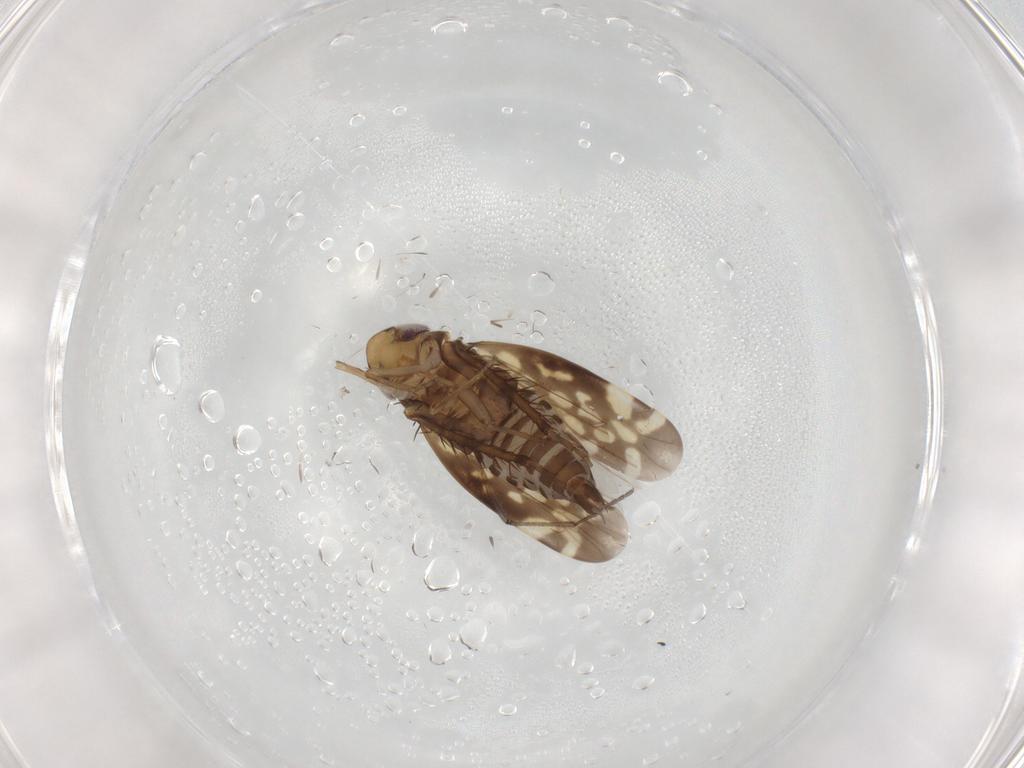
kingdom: Animalia
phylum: Arthropoda
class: Insecta
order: Hemiptera
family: Cicadellidae
